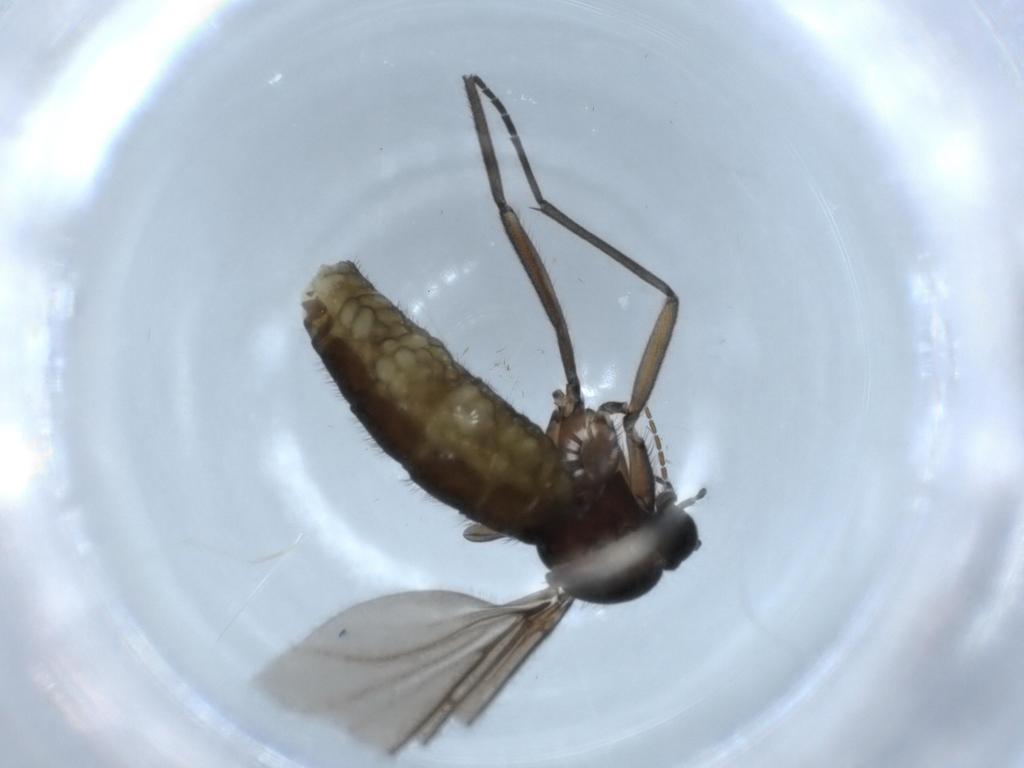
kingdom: Animalia
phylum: Arthropoda
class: Insecta
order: Diptera
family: Sciaridae
